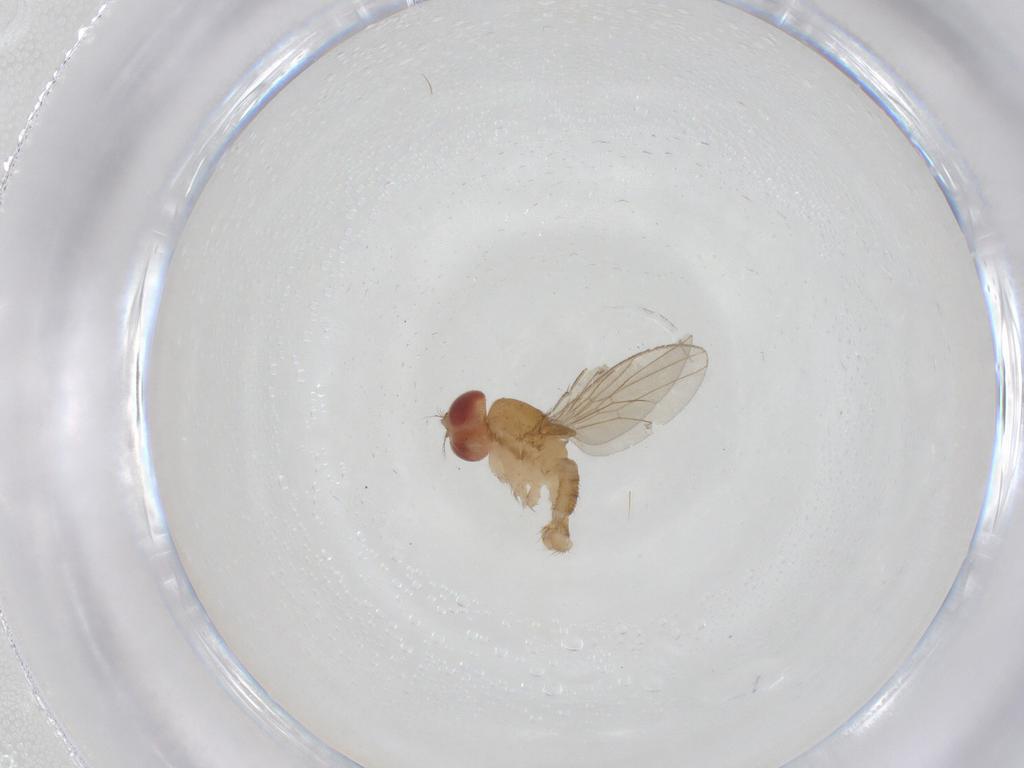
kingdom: Animalia
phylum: Arthropoda
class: Insecta
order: Diptera
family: Drosophilidae
